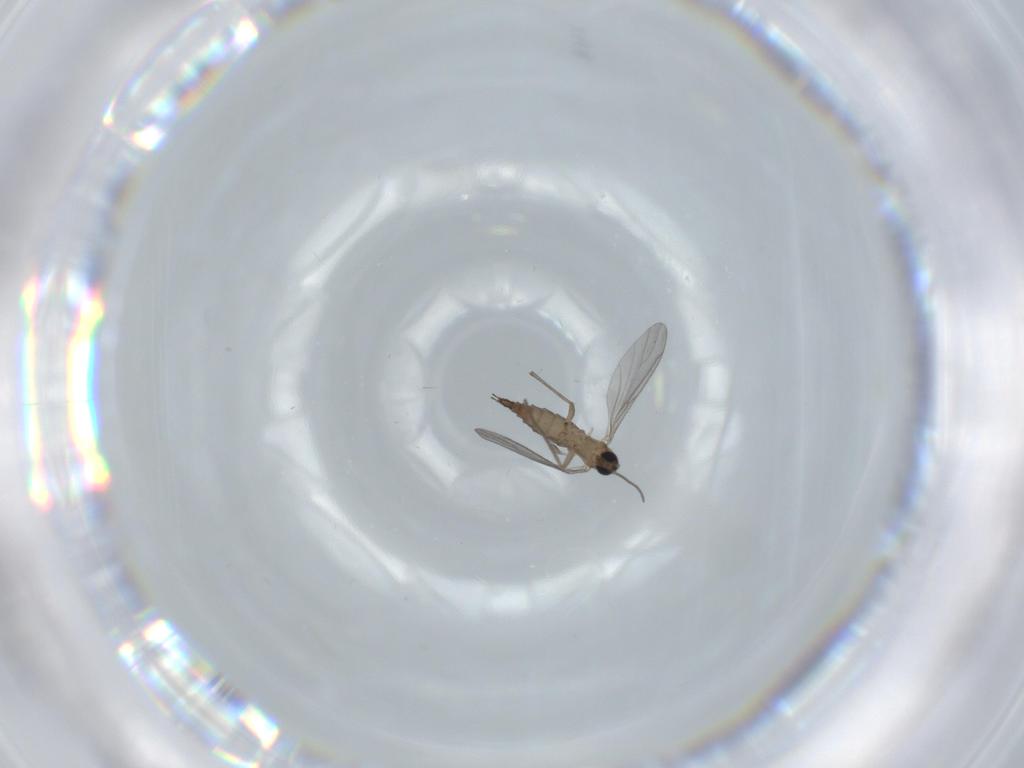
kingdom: Animalia
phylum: Arthropoda
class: Insecta
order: Diptera
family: Sciaridae
